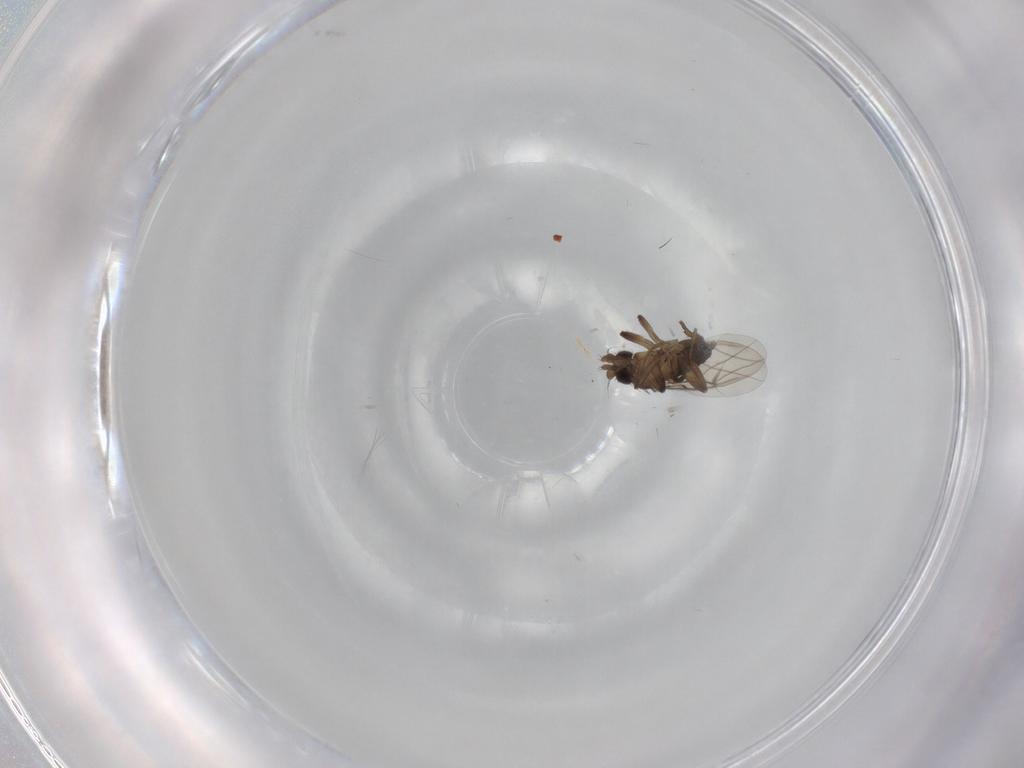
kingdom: Animalia
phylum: Arthropoda
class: Insecta
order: Diptera
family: Phoridae
